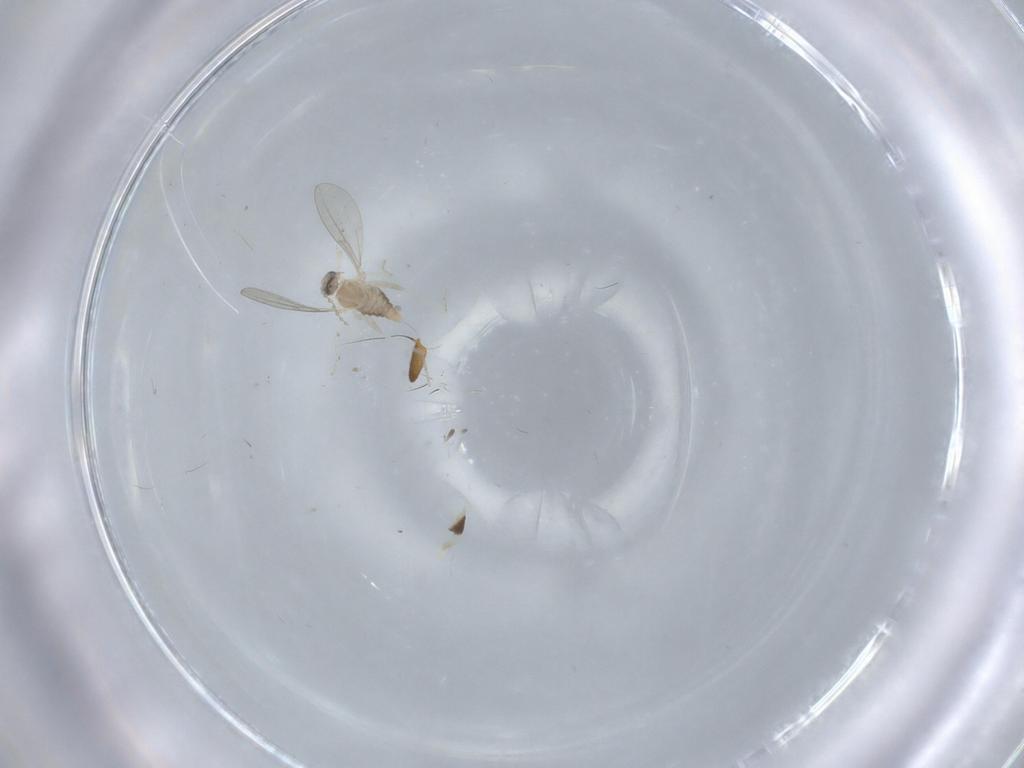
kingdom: Animalia
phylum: Arthropoda
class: Insecta
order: Diptera
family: Cecidomyiidae
